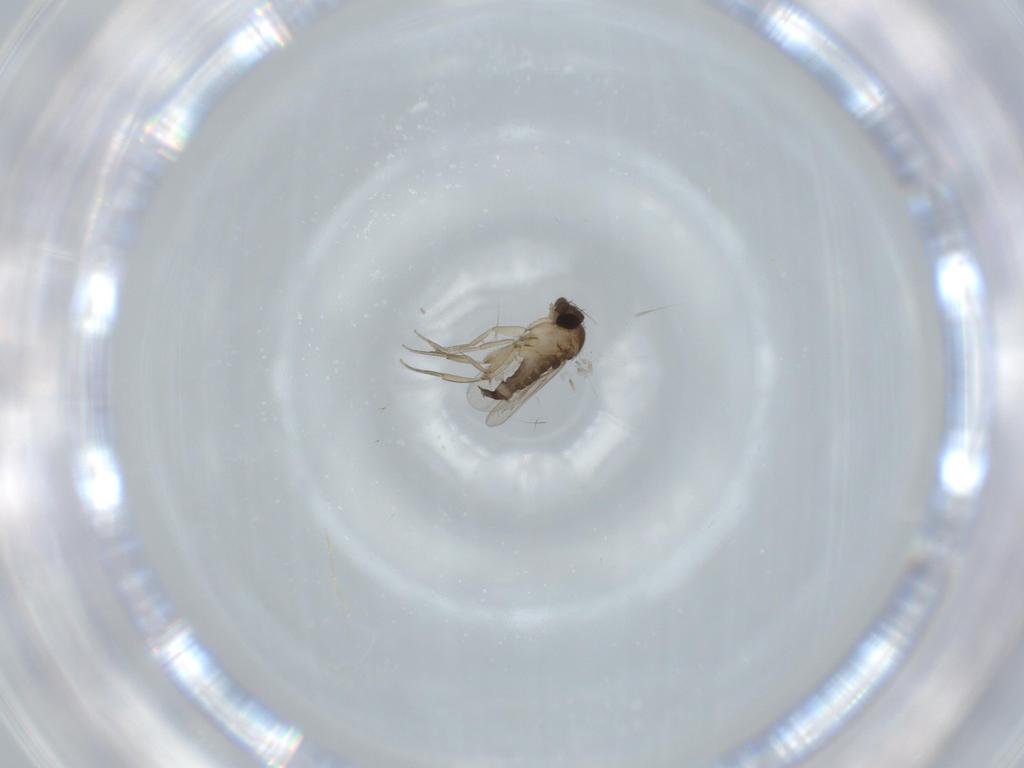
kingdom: Animalia
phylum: Arthropoda
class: Insecta
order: Diptera
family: Phoridae
